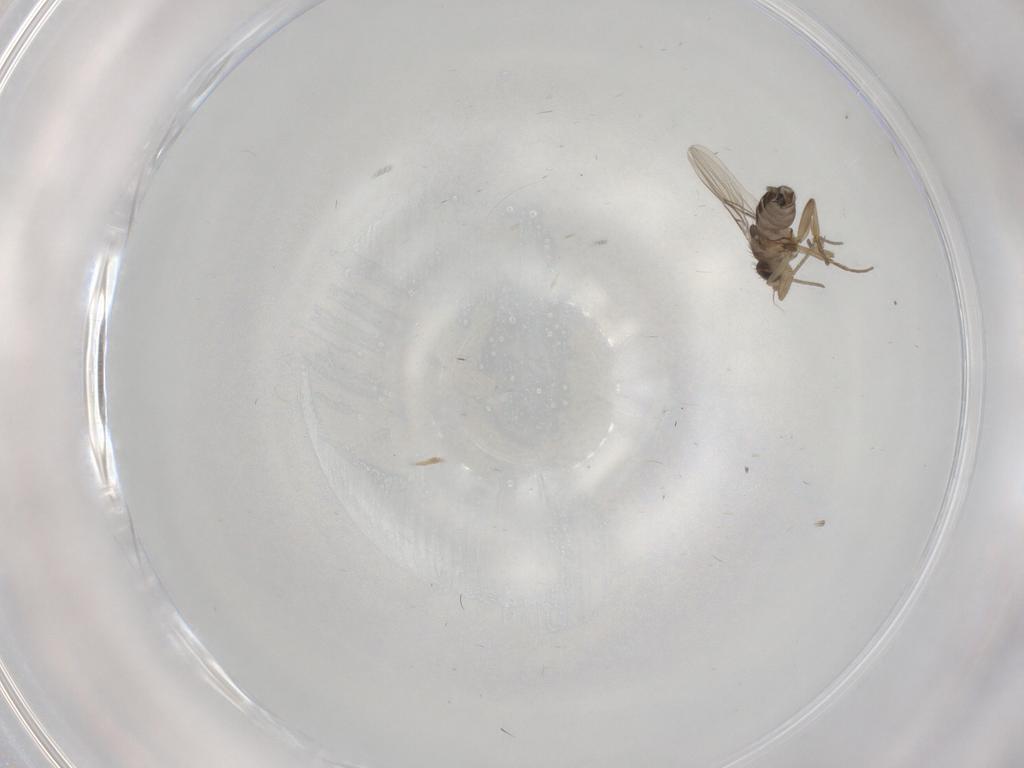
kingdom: Animalia
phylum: Arthropoda
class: Insecta
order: Diptera
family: Phoridae
